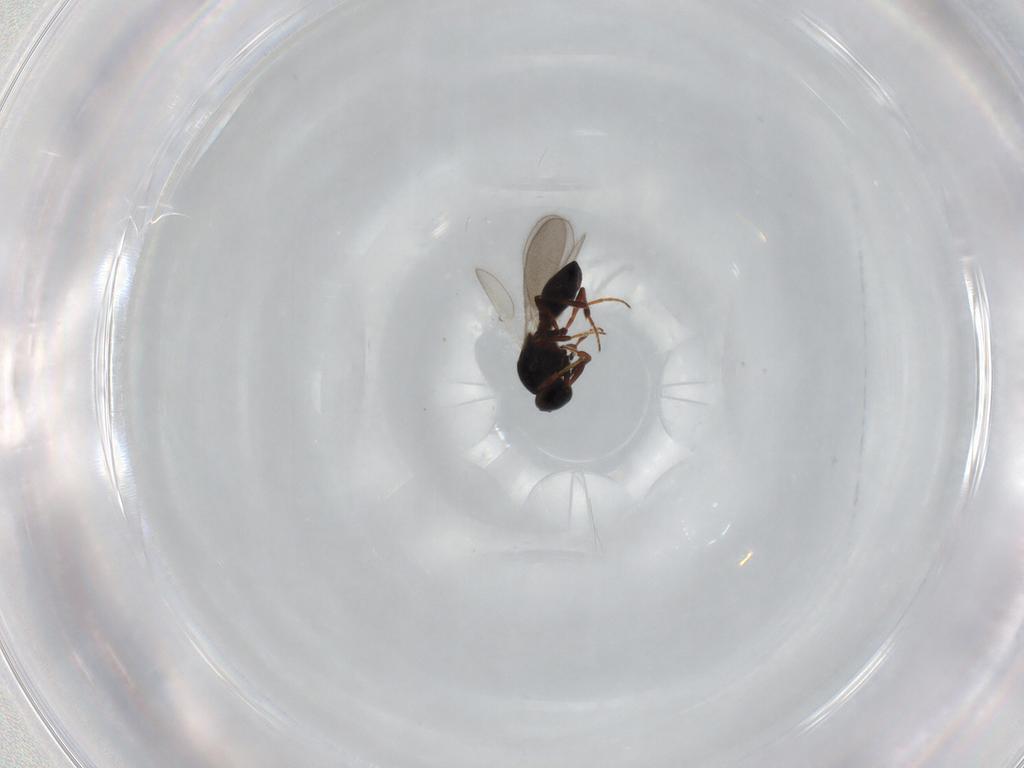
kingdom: Animalia
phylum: Arthropoda
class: Insecta
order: Hymenoptera
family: Platygastridae
